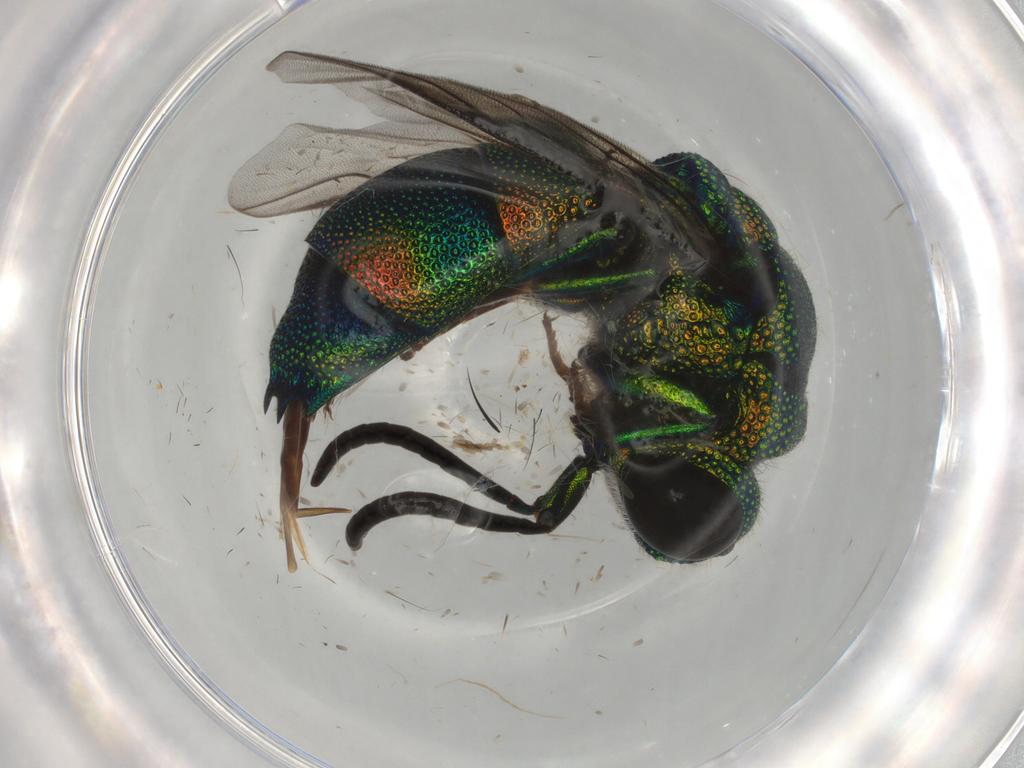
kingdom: Animalia
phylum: Arthropoda
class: Insecta
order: Hymenoptera
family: Chrysididae
